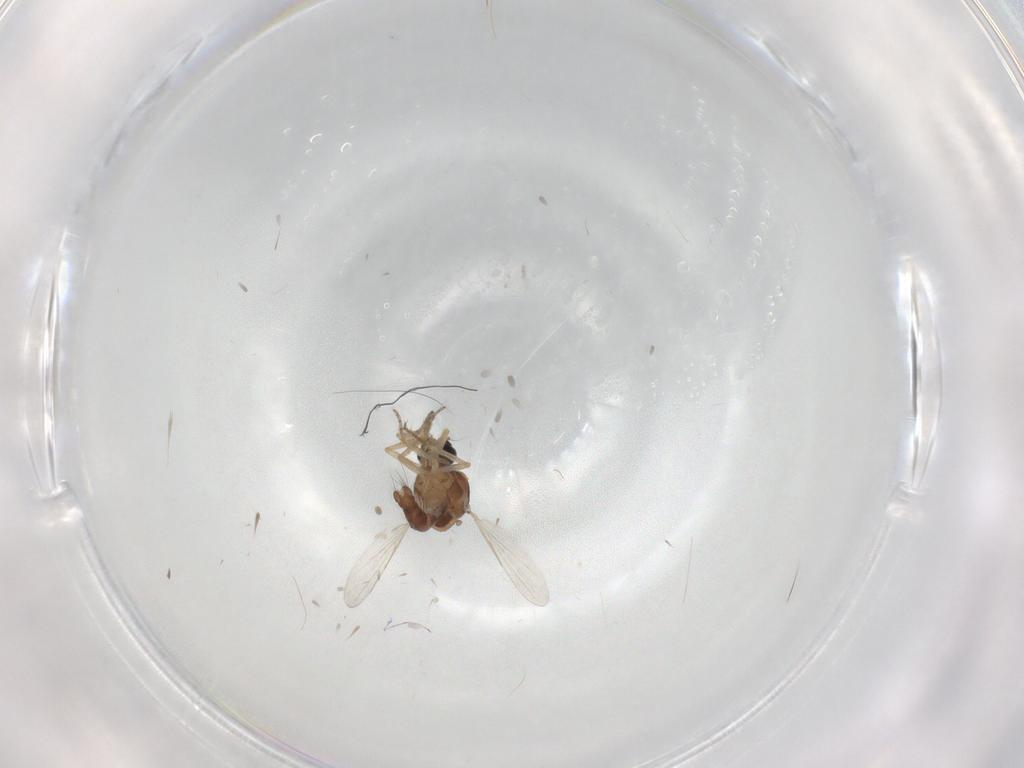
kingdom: Animalia
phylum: Arthropoda
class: Insecta
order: Diptera
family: Ceratopogonidae
